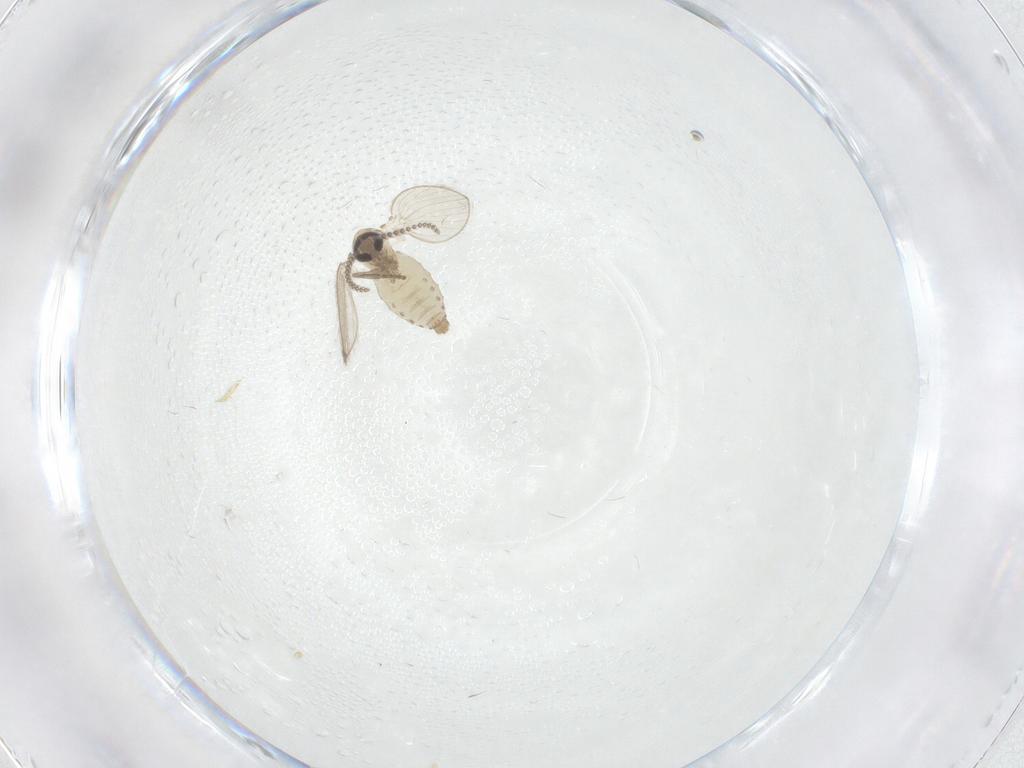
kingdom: Animalia
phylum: Arthropoda
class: Insecta
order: Diptera
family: Psychodidae
